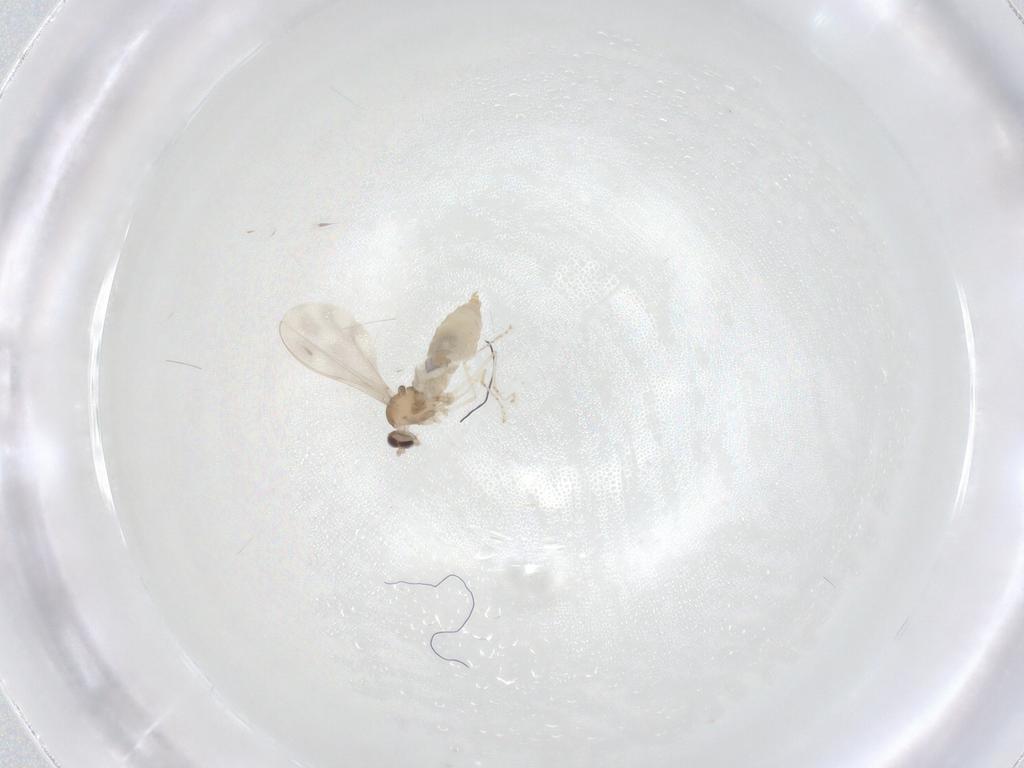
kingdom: Animalia
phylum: Arthropoda
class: Insecta
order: Diptera
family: Cecidomyiidae
